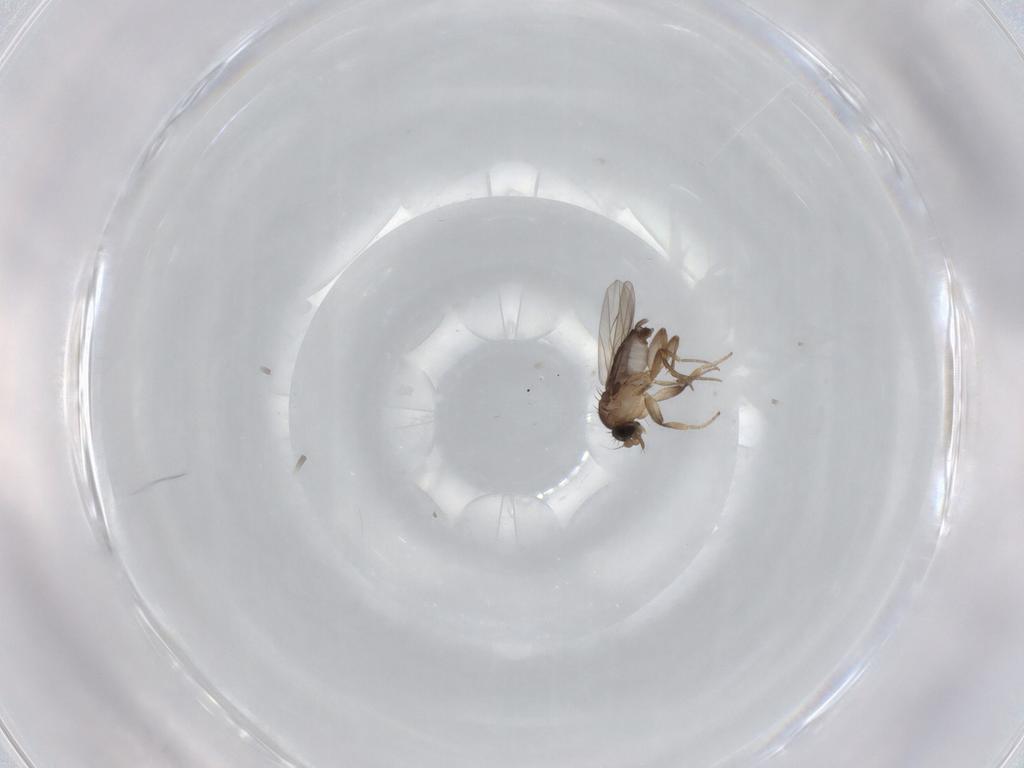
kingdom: Animalia
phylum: Arthropoda
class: Insecta
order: Diptera
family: Phoridae
